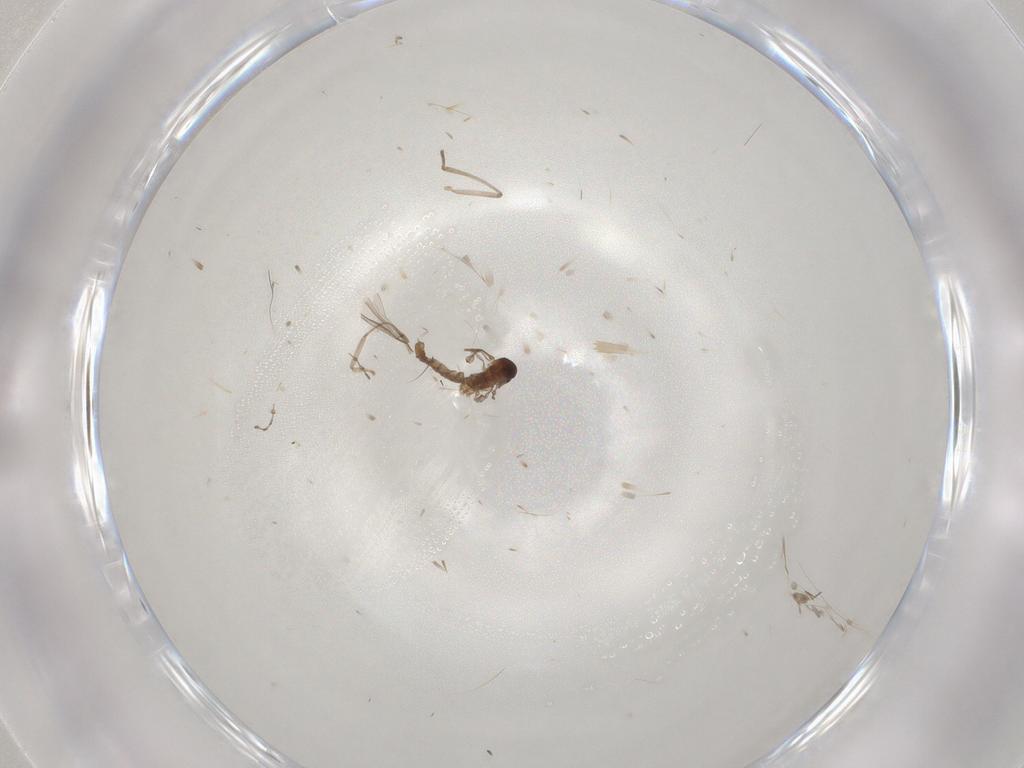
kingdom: Animalia
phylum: Arthropoda
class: Insecta
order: Diptera
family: Cecidomyiidae
